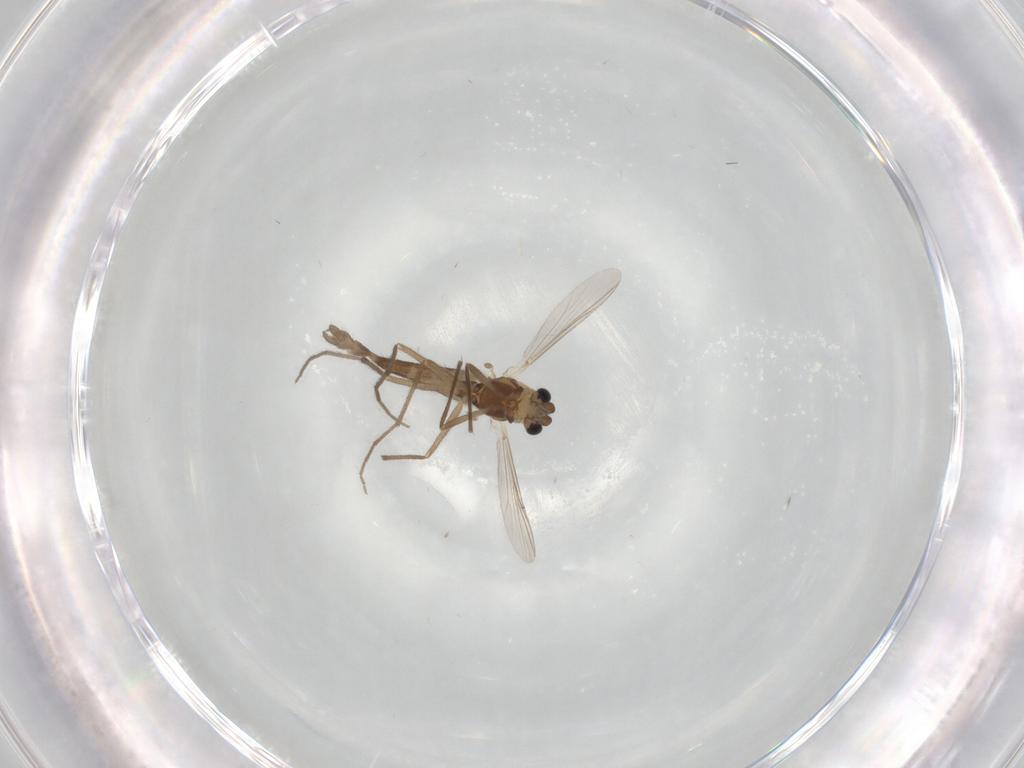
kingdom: Animalia
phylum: Arthropoda
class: Insecta
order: Diptera
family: Chironomidae
